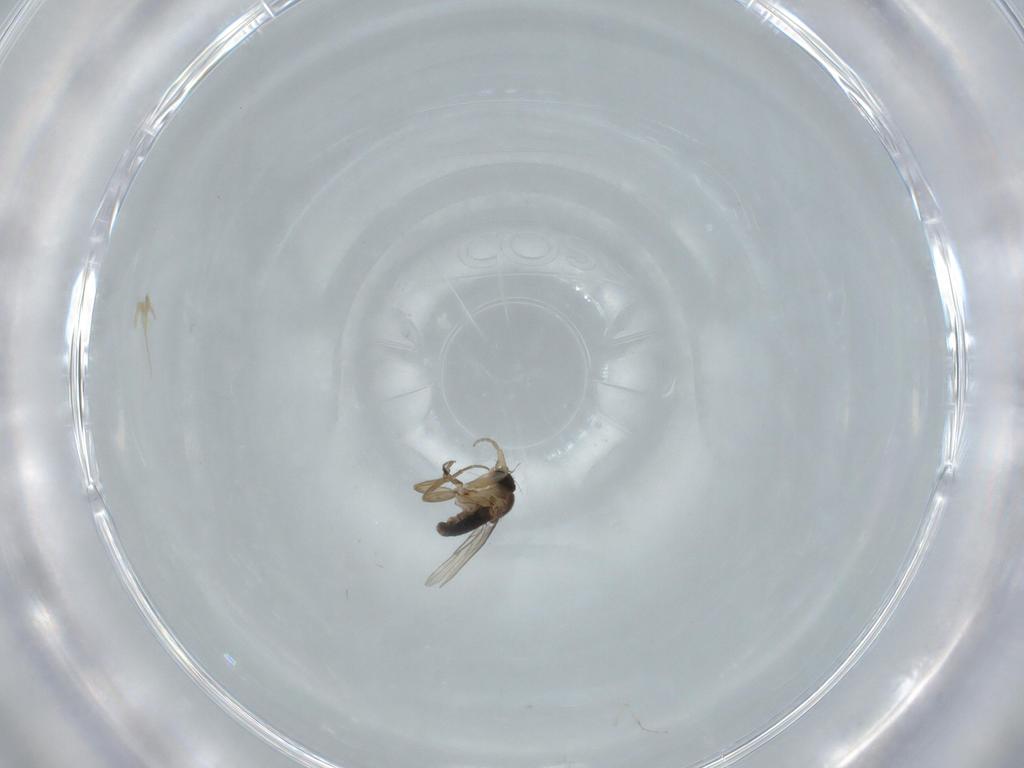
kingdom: Animalia
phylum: Arthropoda
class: Insecta
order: Diptera
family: Phoridae
